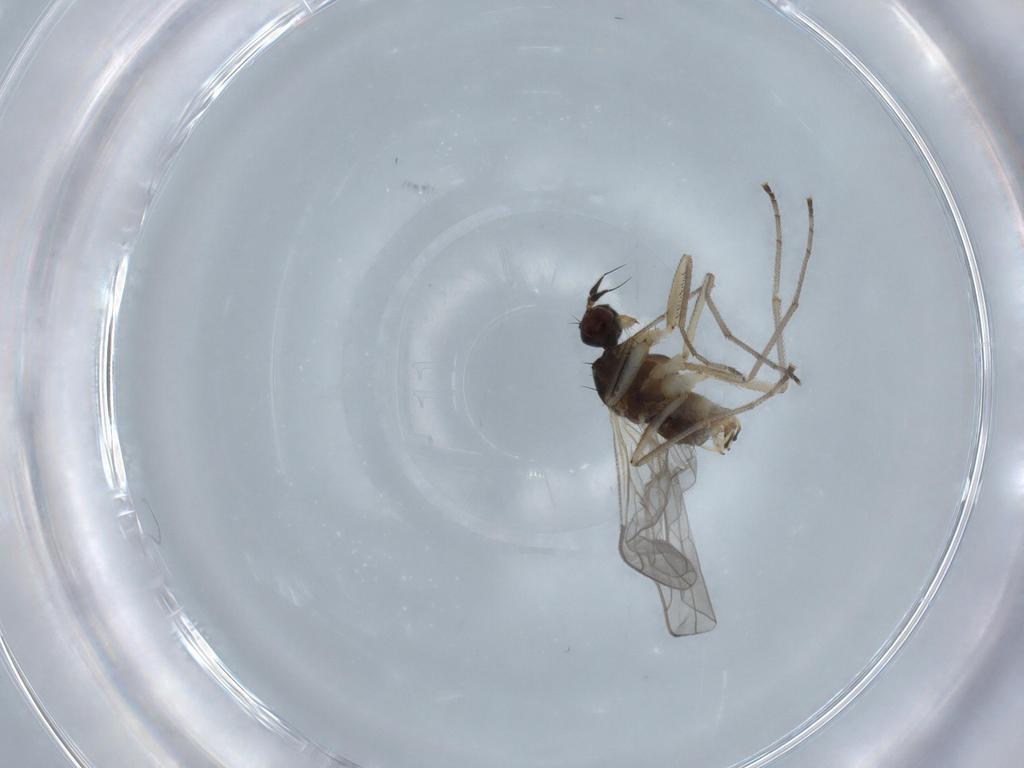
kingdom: Animalia
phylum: Arthropoda
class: Insecta
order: Diptera
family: Empididae
